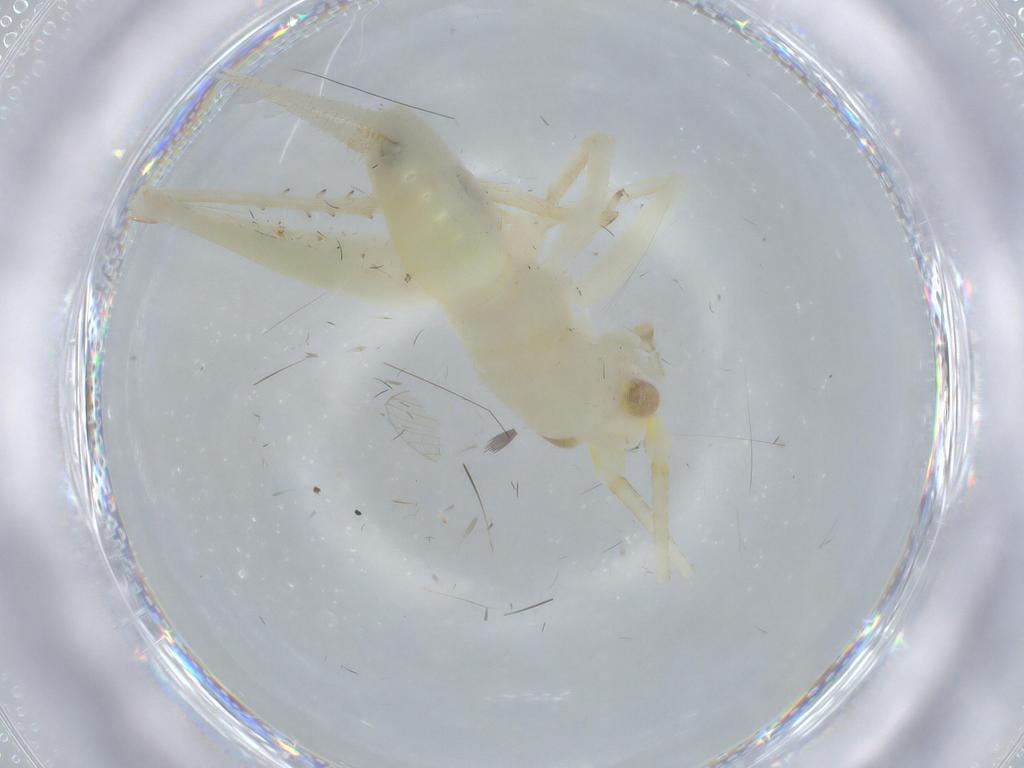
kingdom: Animalia
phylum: Arthropoda
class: Insecta
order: Orthoptera
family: Trigonidiidae
